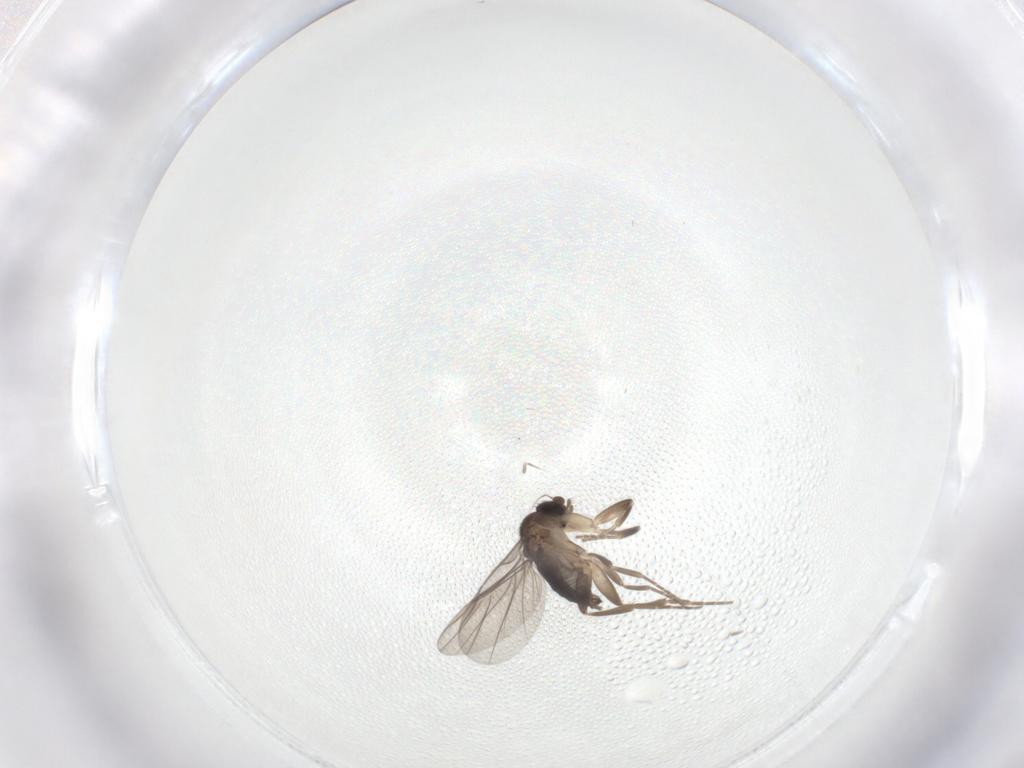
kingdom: Animalia
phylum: Arthropoda
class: Insecta
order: Diptera
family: Phoridae
